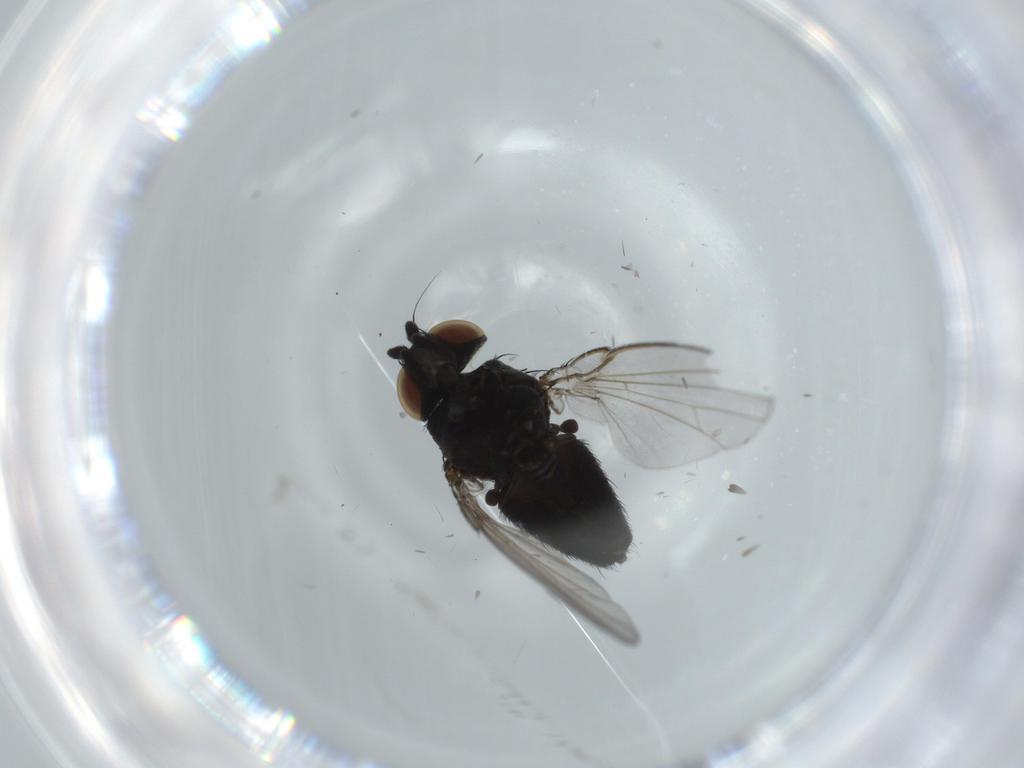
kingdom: Animalia
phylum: Arthropoda
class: Insecta
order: Diptera
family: Milichiidae
